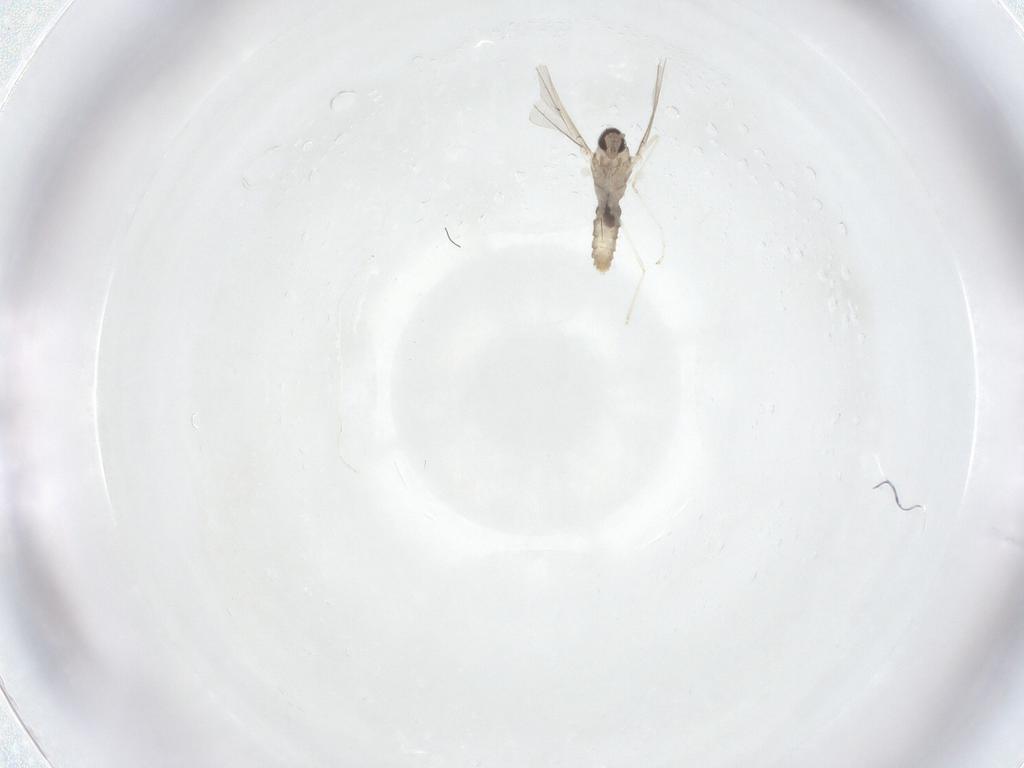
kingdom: Animalia
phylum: Arthropoda
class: Insecta
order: Diptera
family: Cecidomyiidae
